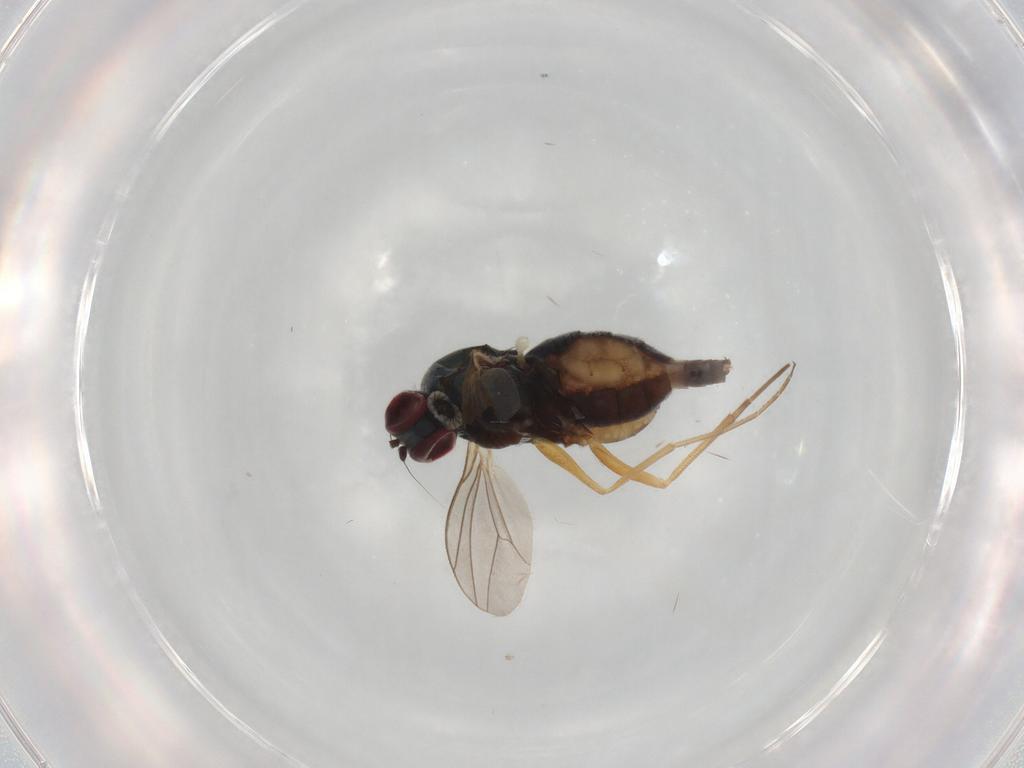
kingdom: Animalia
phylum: Arthropoda
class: Insecta
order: Diptera
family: Dolichopodidae
